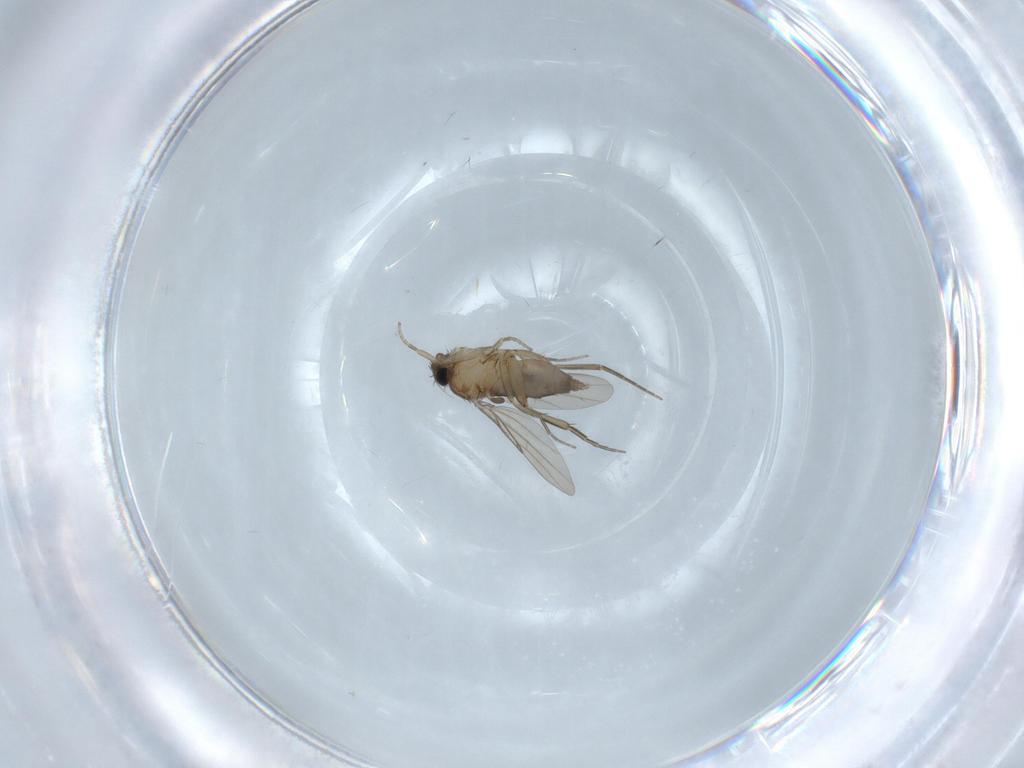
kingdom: Animalia
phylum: Arthropoda
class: Insecta
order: Diptera
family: Phoridae
